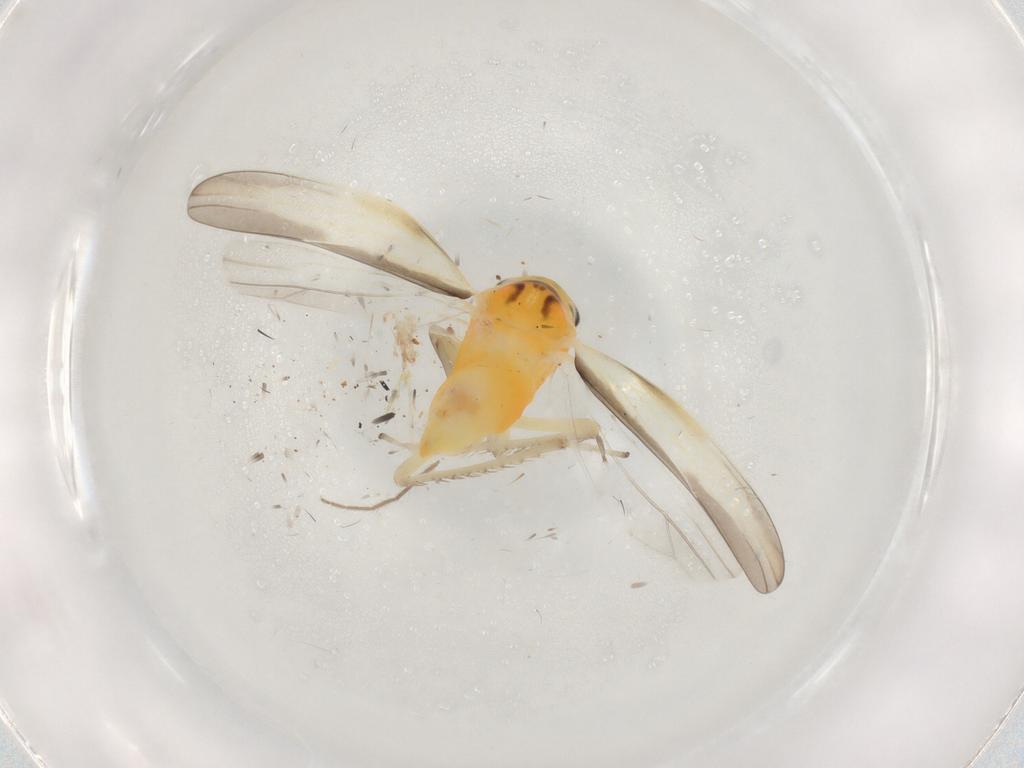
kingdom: Animalia
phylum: Arthropoda
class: Insecta
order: Hemiptera
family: Cicadellidae
